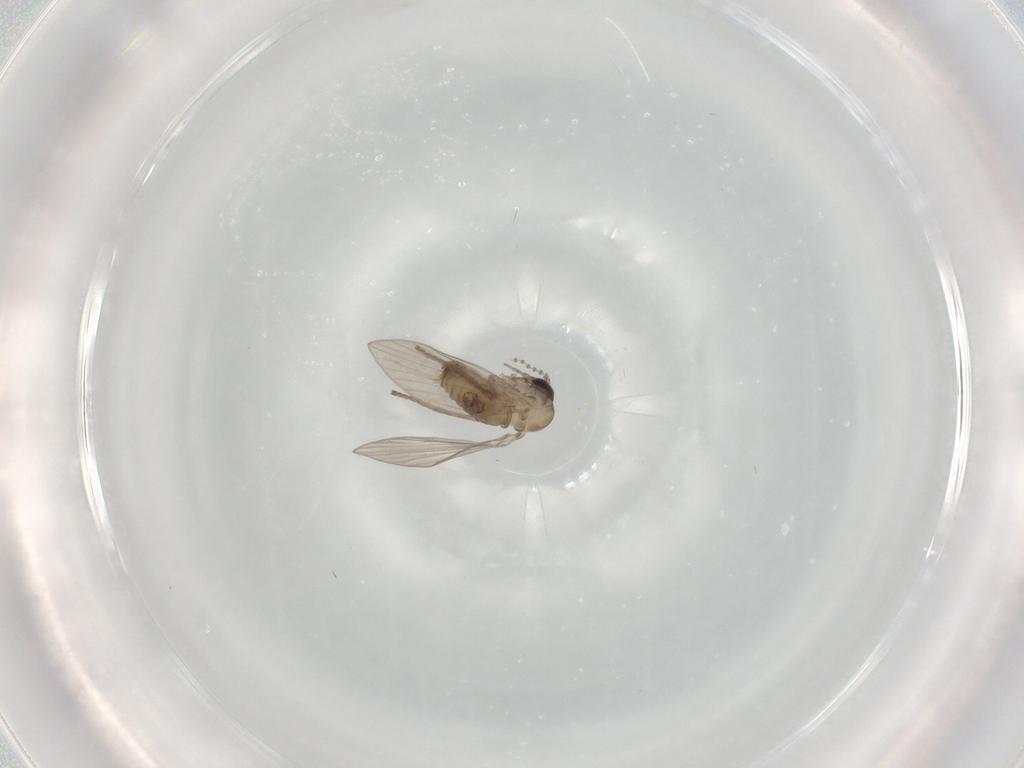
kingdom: Animalia
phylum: Arthropoda
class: Insecta
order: Diptera
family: Psychodidae
